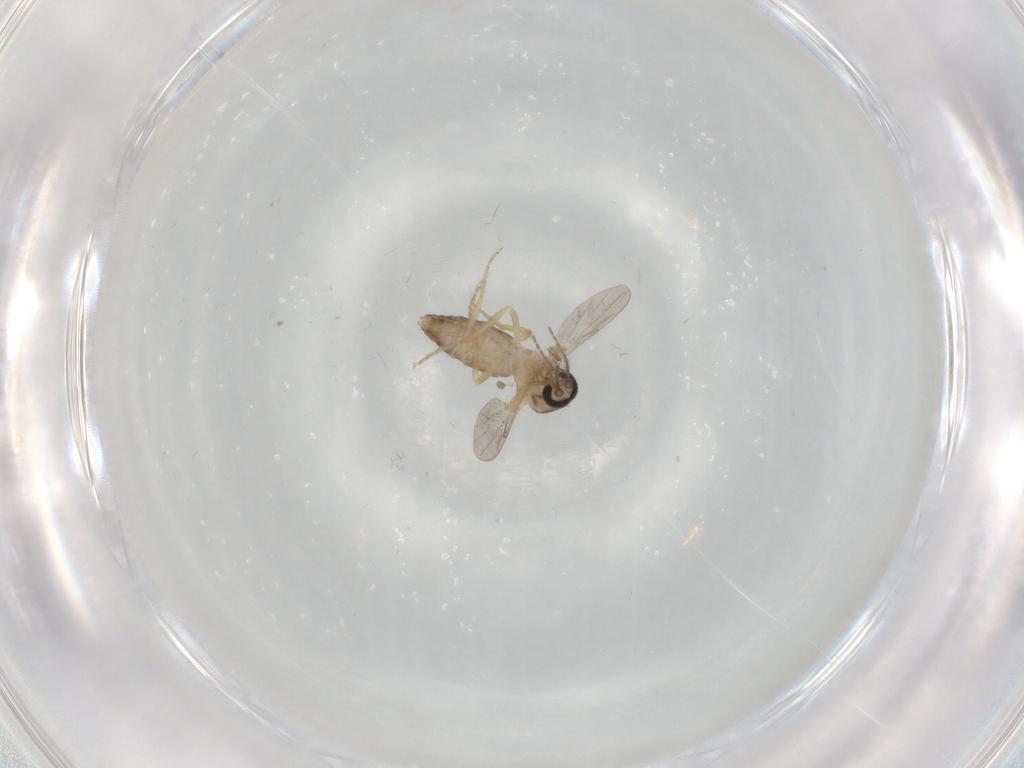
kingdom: Animalia
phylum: Arthropoda
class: Insecta
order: Diptera
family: Ceratopogonidae
